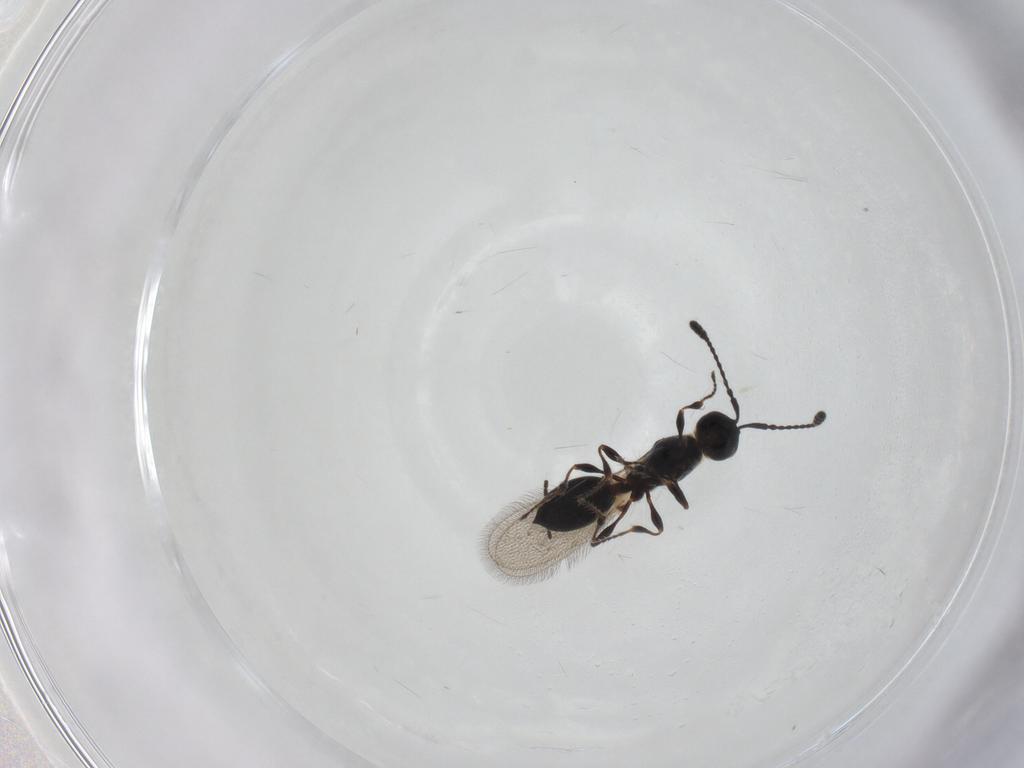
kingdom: Animalia
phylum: Arthropoda
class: Insecta
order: Hymenoptera
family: Diapriidae
